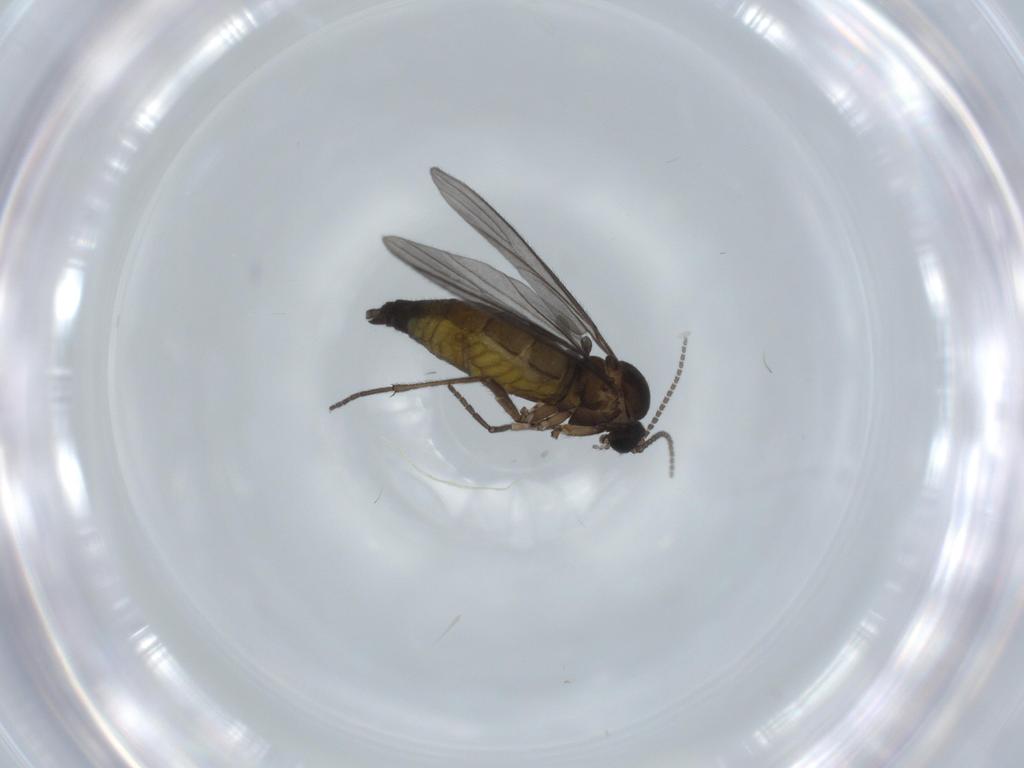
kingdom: Animalia
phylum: Arthropoda
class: Insecta
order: Diptera
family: Sciaridae
